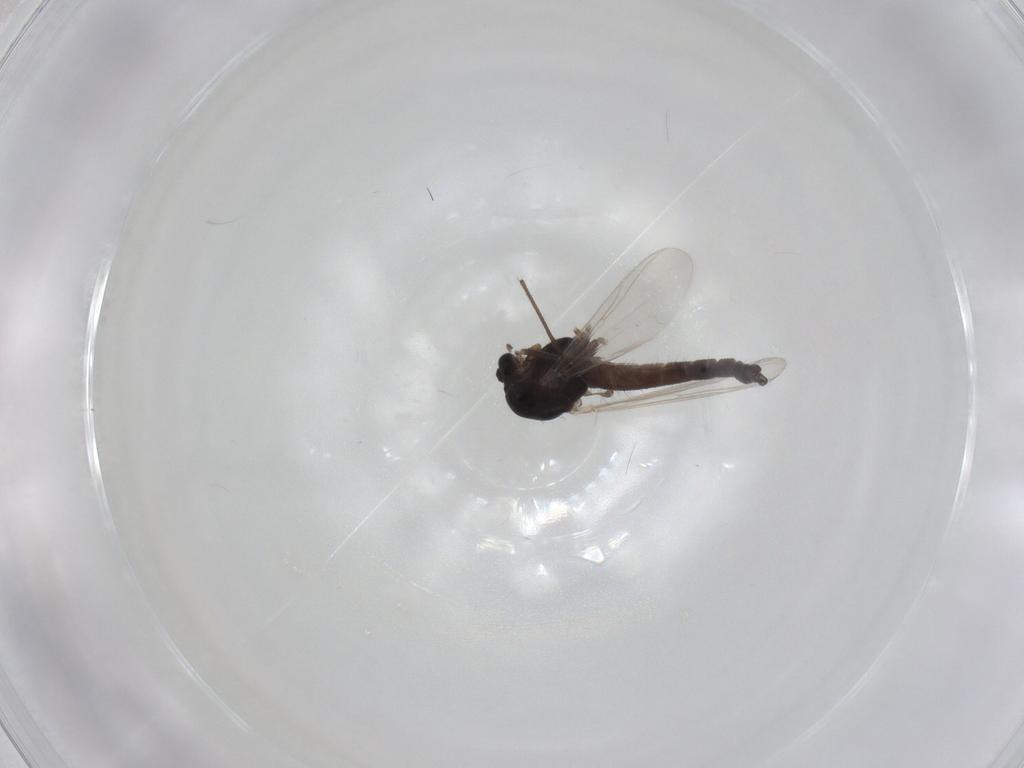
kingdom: Animalia
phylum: Arthropoda
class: Insecta
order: Diptera
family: Chironomidae
